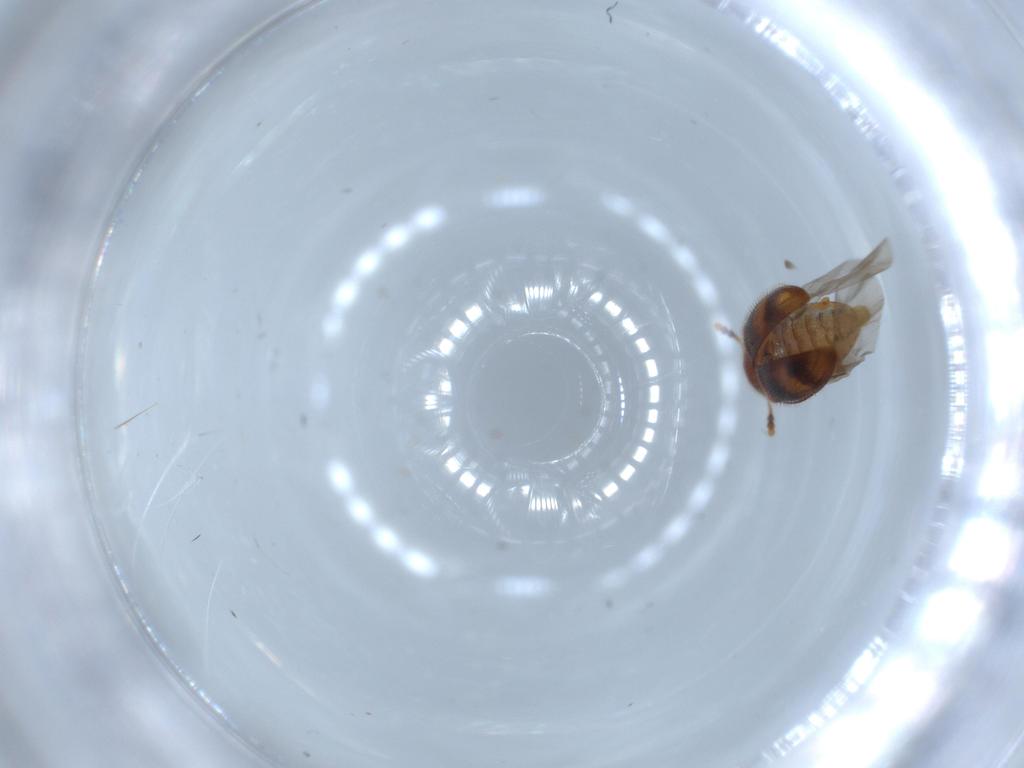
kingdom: Animalia
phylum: Arthropoda
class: Insecta
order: Coleoptera
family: Erotylidae
